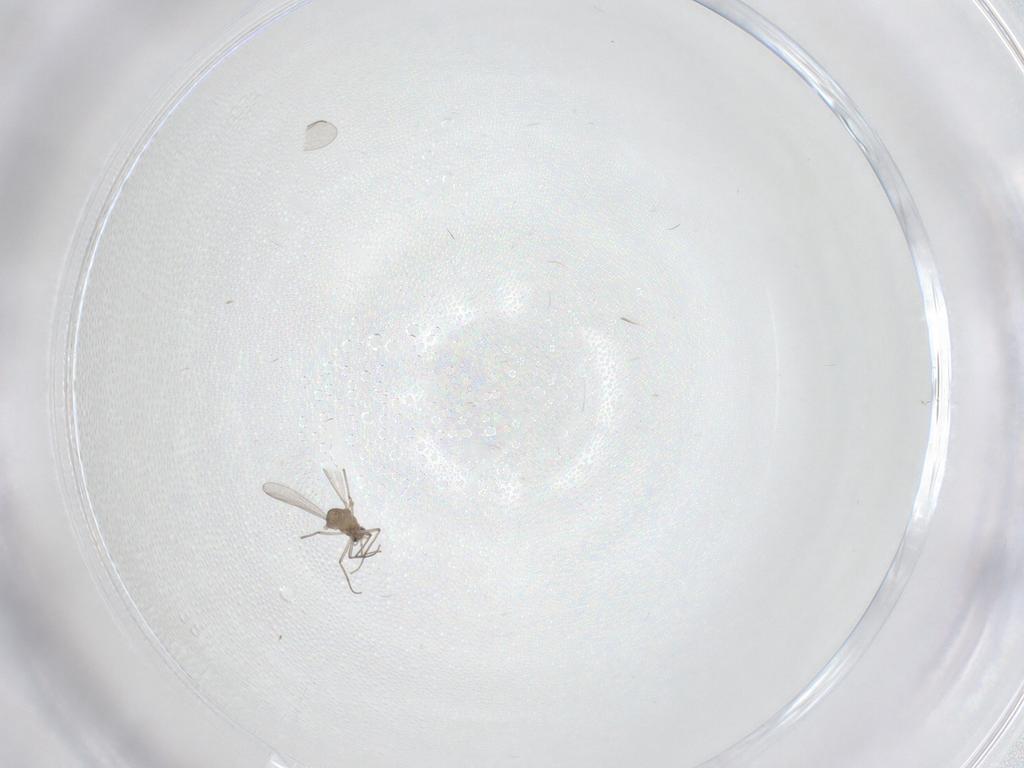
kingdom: Animalia
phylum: Arthropoda
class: Insecta
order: Diptera
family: Chironomidae
